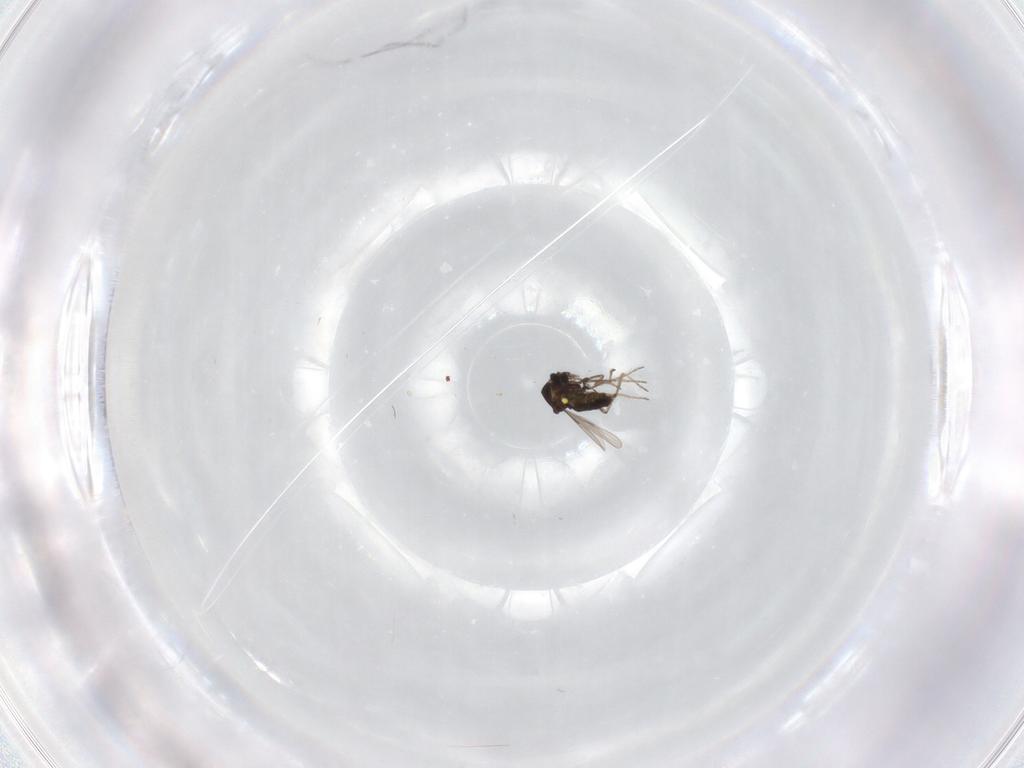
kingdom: Animalia
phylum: Arthropoda
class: Insecta
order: Diptera
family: Ceratopogonidae
